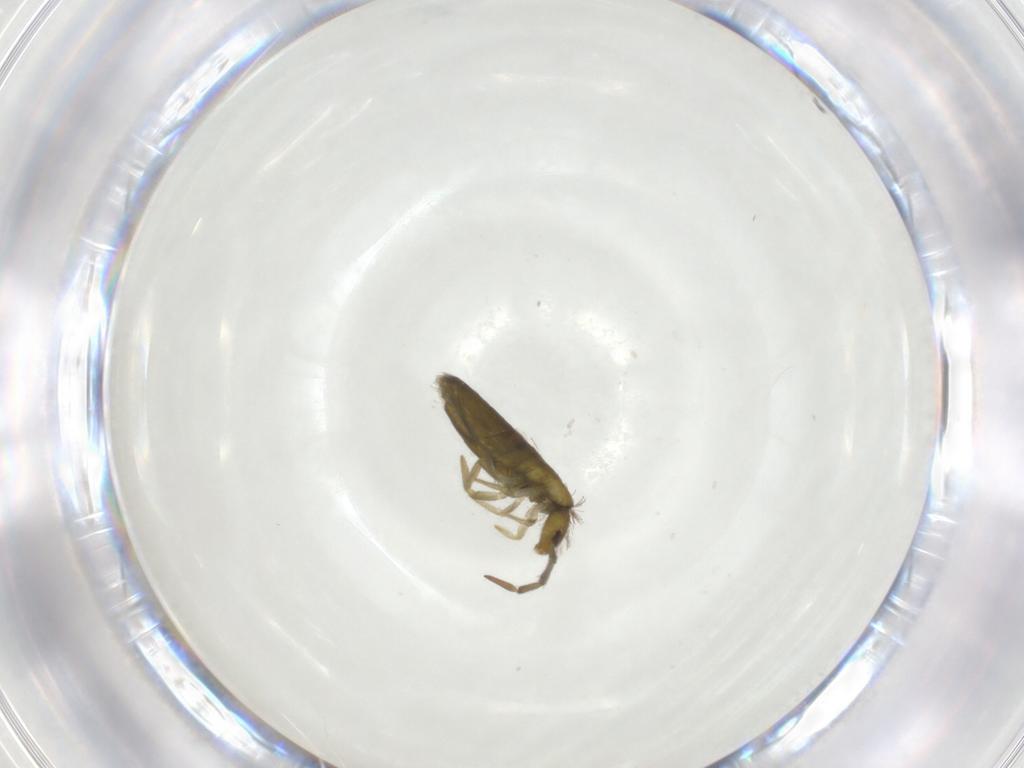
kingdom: Animalia
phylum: Arthropoda
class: Collembola
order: Entomobryomorpha
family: Entomobryidae
